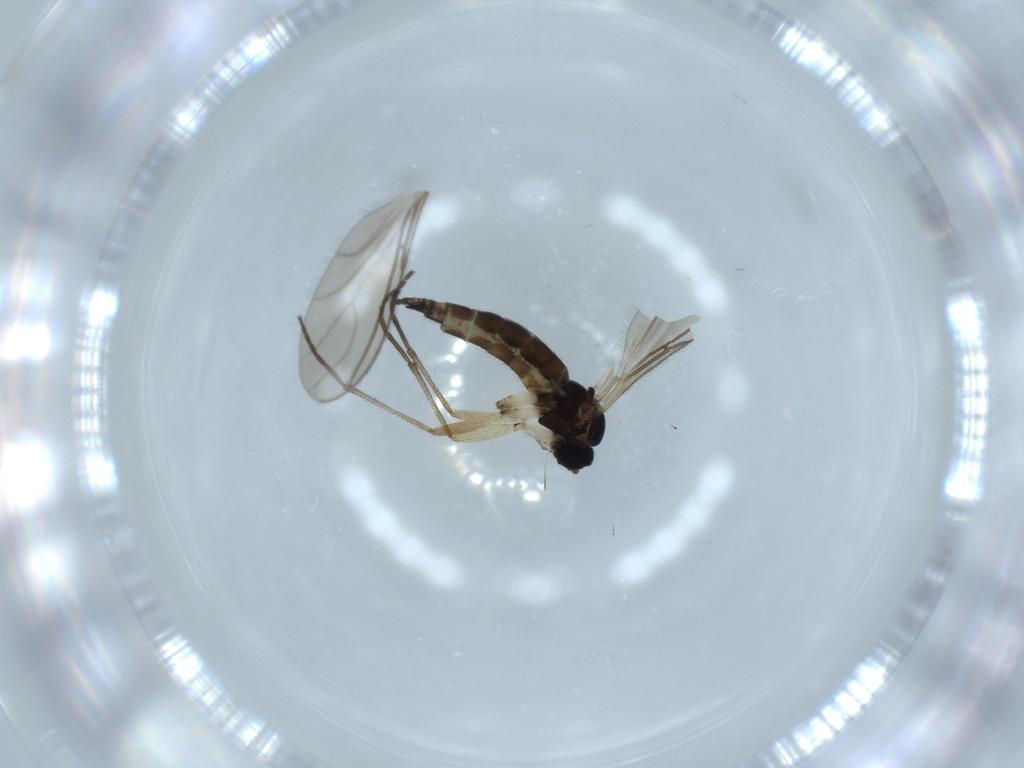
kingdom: Animalia
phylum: Arthropoda
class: Insecta
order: Diptera
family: Sciaridae
